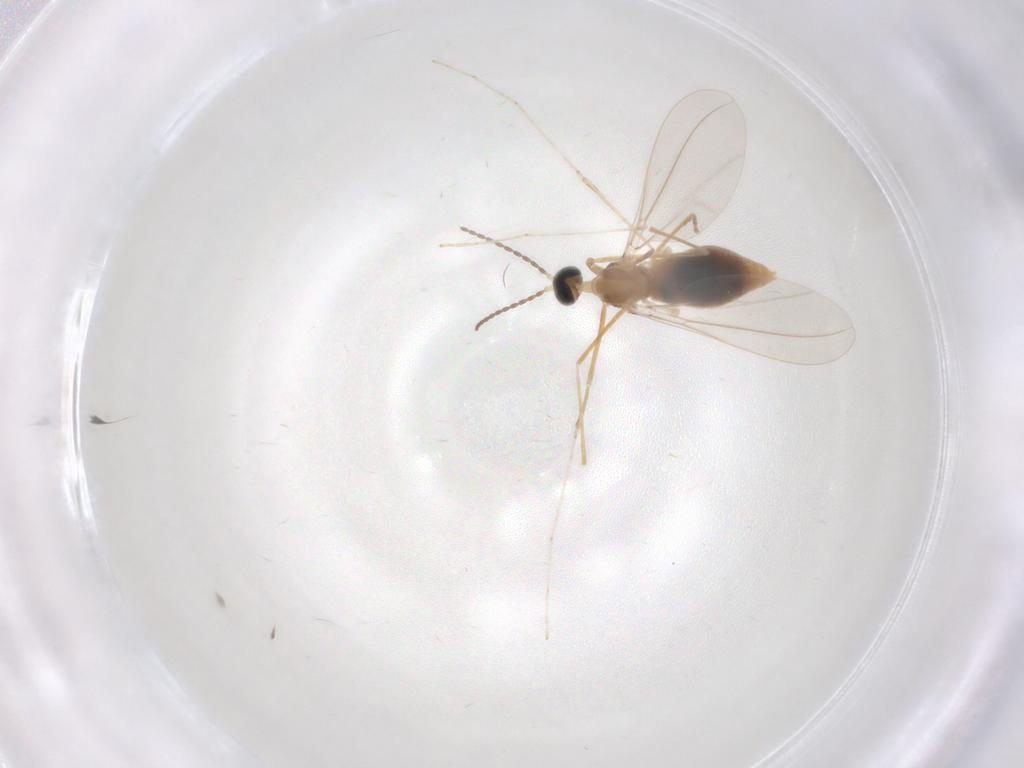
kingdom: Animalia
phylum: Arthropoda
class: Insecta
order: Diptera
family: Cecidomyiidae
